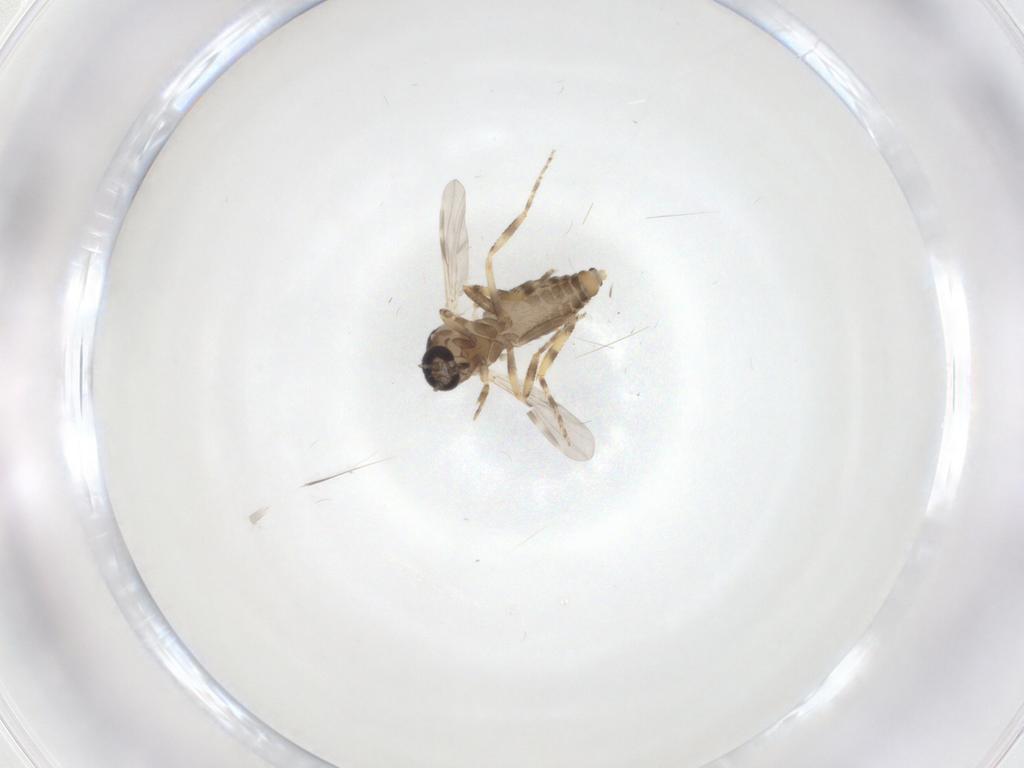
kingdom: Animalia
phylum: Arthropoda
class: Insecta
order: Diptera
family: Ceratopogonidae
